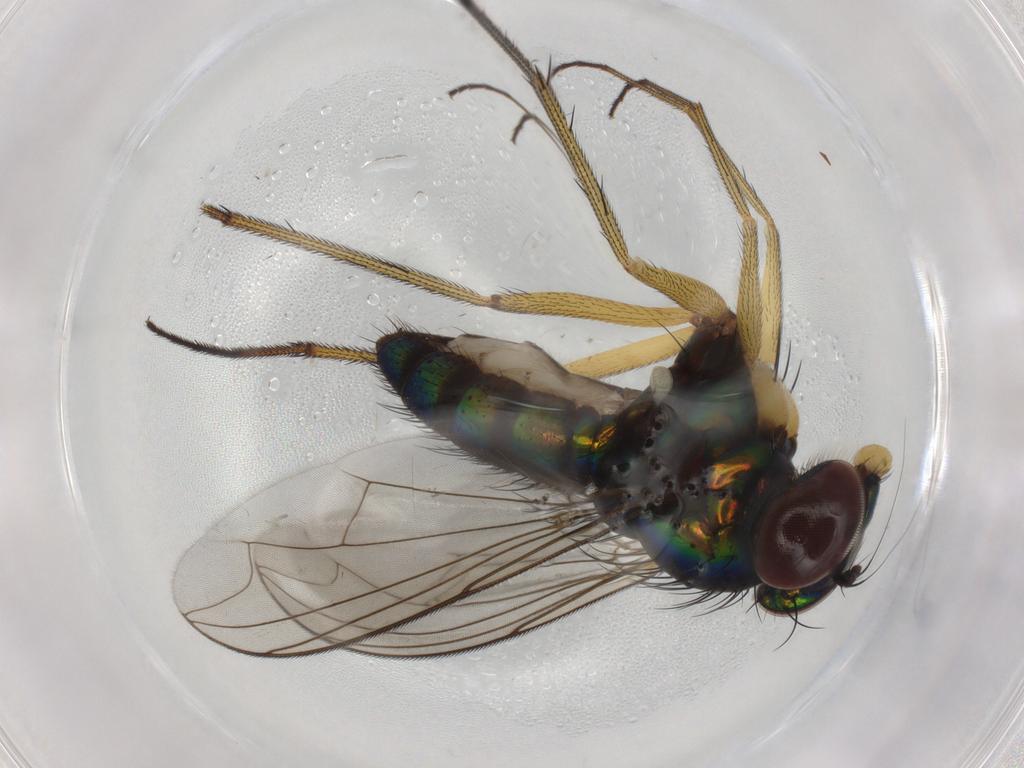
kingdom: Animalia
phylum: Arthropoda
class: Insecta
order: Diptera
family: Dolichopodidae
